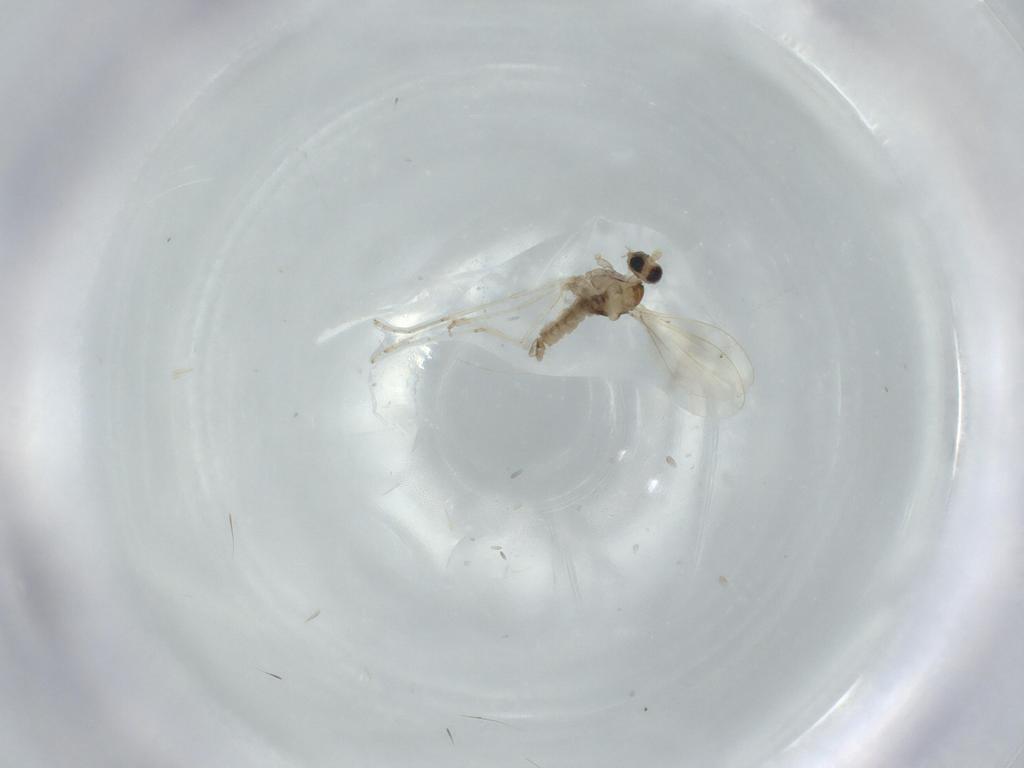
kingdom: Animalia
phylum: Arthropoda
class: Insecta
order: Diptera
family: Cecidomyiidae
